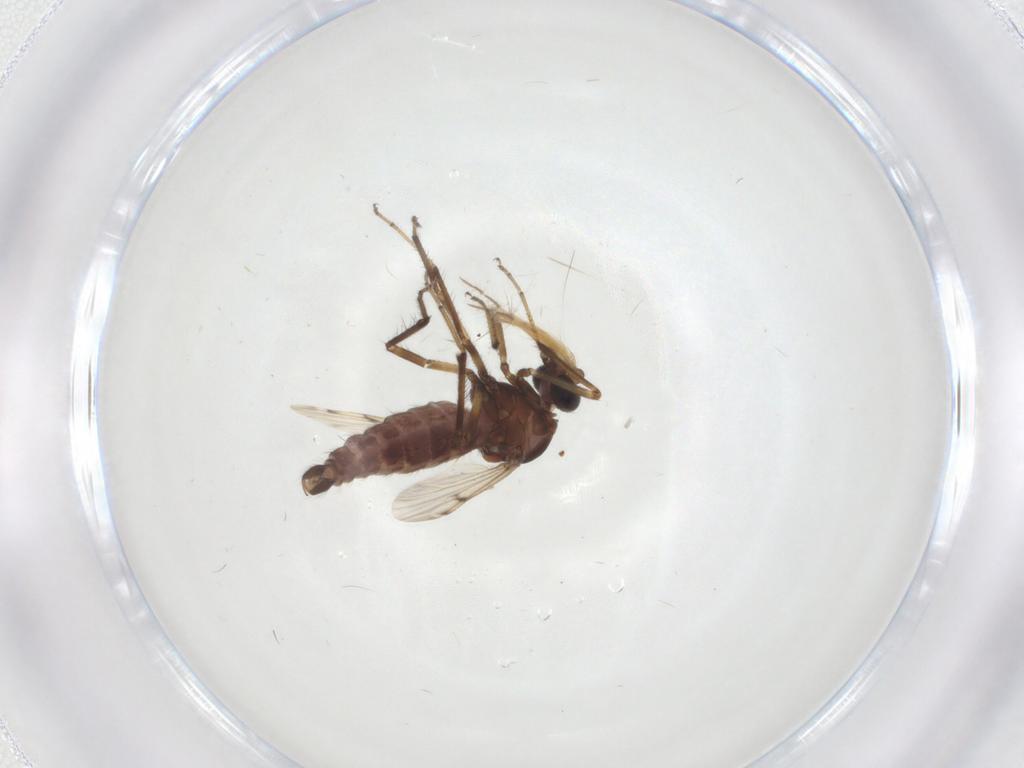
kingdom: Animalia
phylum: Arthropoda
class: Insecta
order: Diptera
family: Ceratopogonidae
